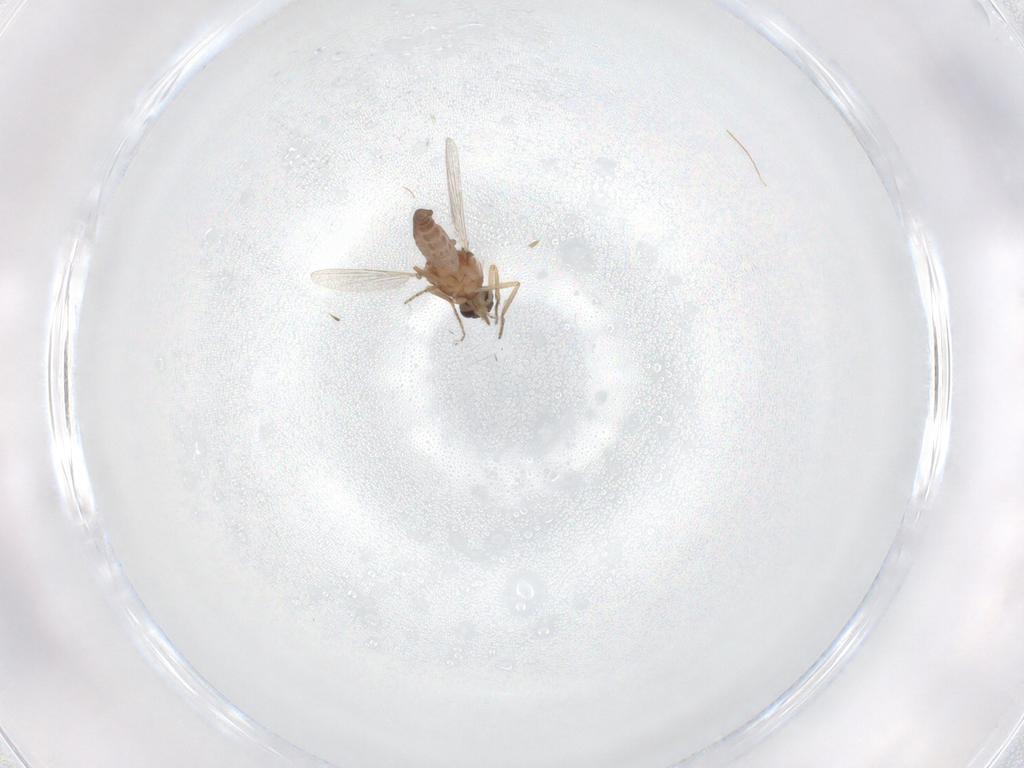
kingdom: Animalia
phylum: Arthropoda
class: Insecta
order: Diptera
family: Ceratopogonidae
